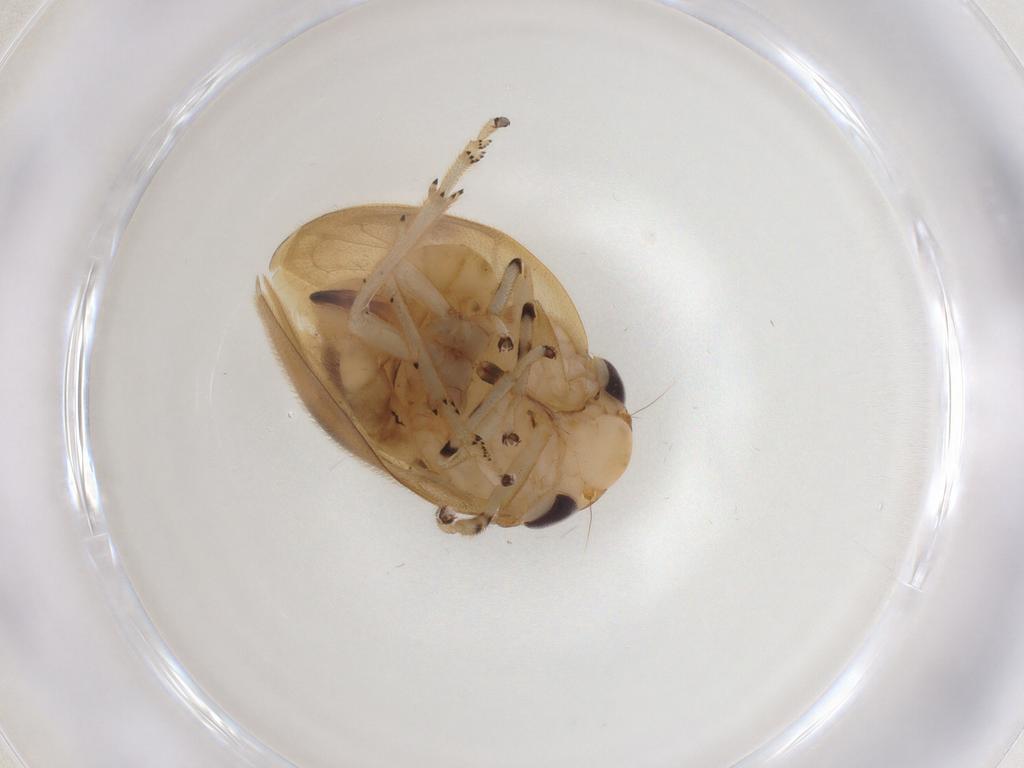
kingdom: Animalia
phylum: Arthropoda
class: Insecta
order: Hemiptera
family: Clastopteridae
